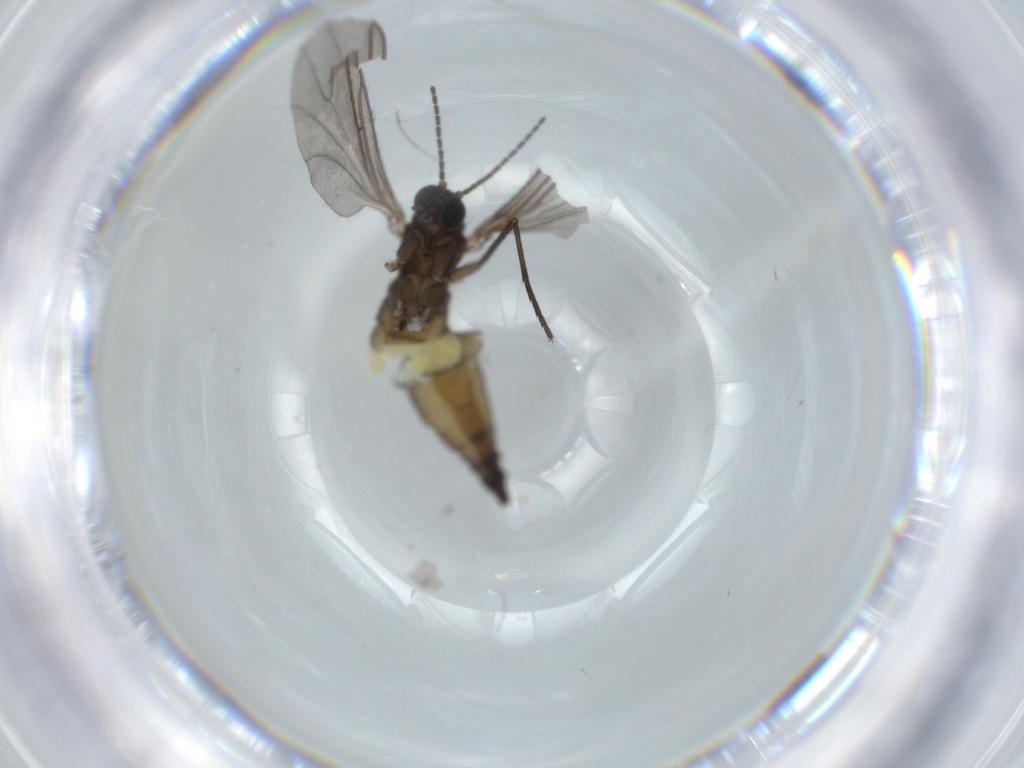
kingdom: Animalia
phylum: Arthropoda
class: Insecta
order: Diptera
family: Sciaridae
